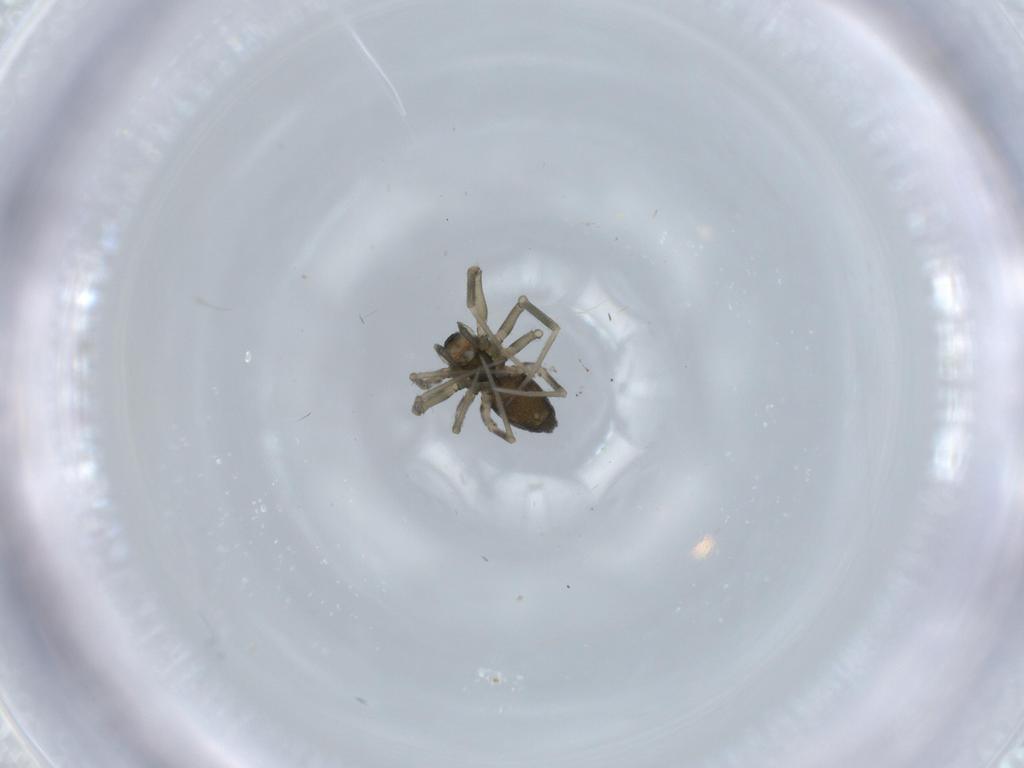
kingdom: Animalia
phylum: Arthropoda
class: Arachnida
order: Araneae
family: Linyphiidae
